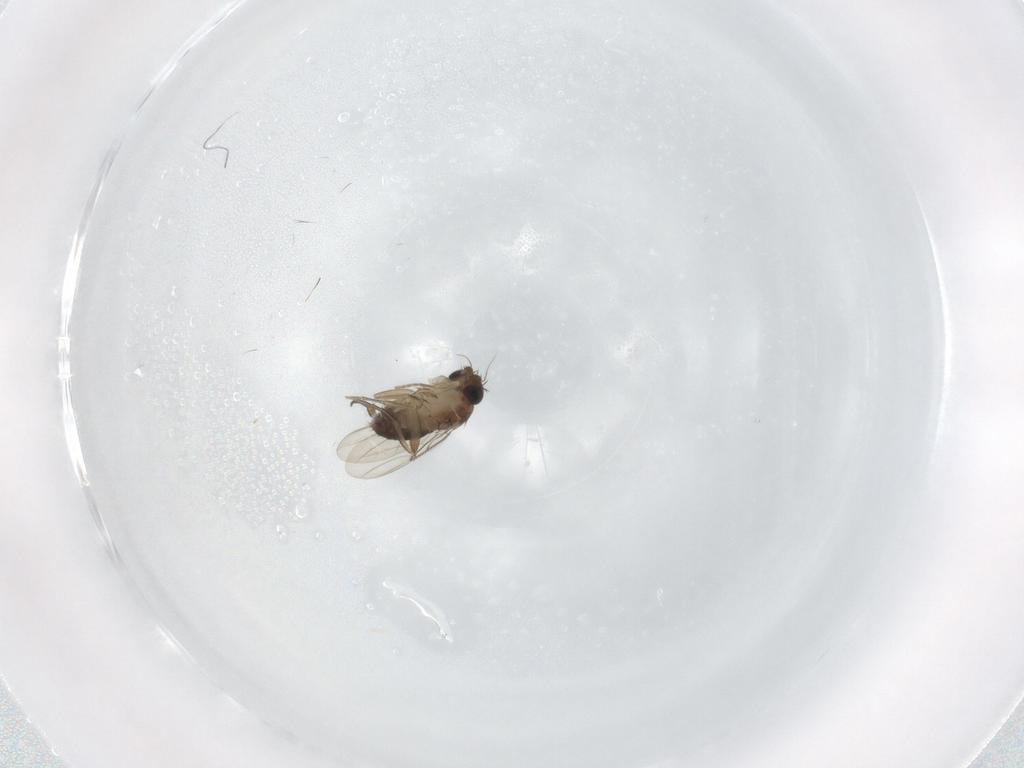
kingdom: Animalia
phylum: Arthropoda
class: Insecta
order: Diptera
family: Phoridae
